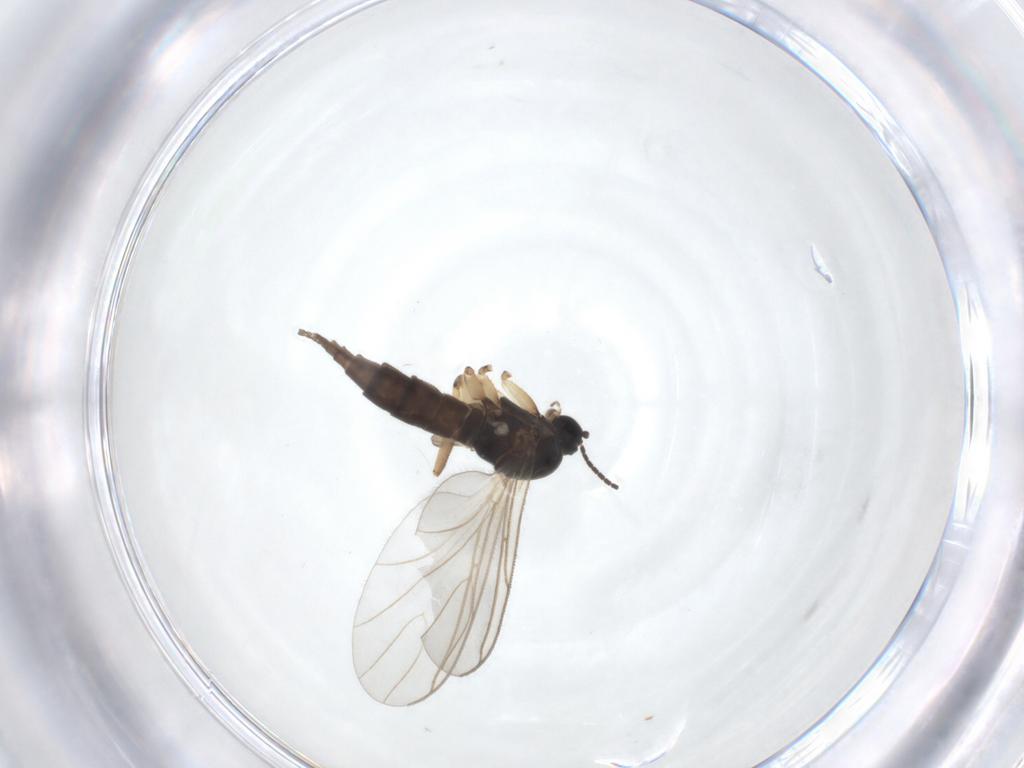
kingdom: Animalia
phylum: Arthropoda
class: Insecta
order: Diptera
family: Sciaridae
